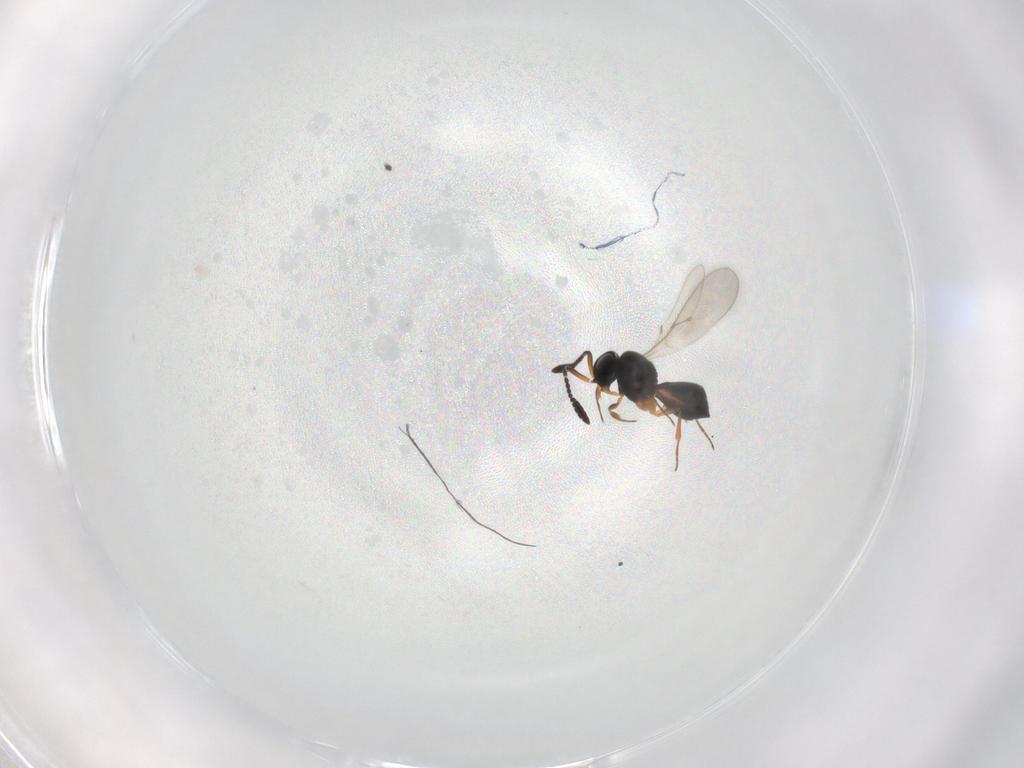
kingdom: Animalia
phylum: Arthropoda
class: Insecta
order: Hymenoptera
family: Scelionidae
